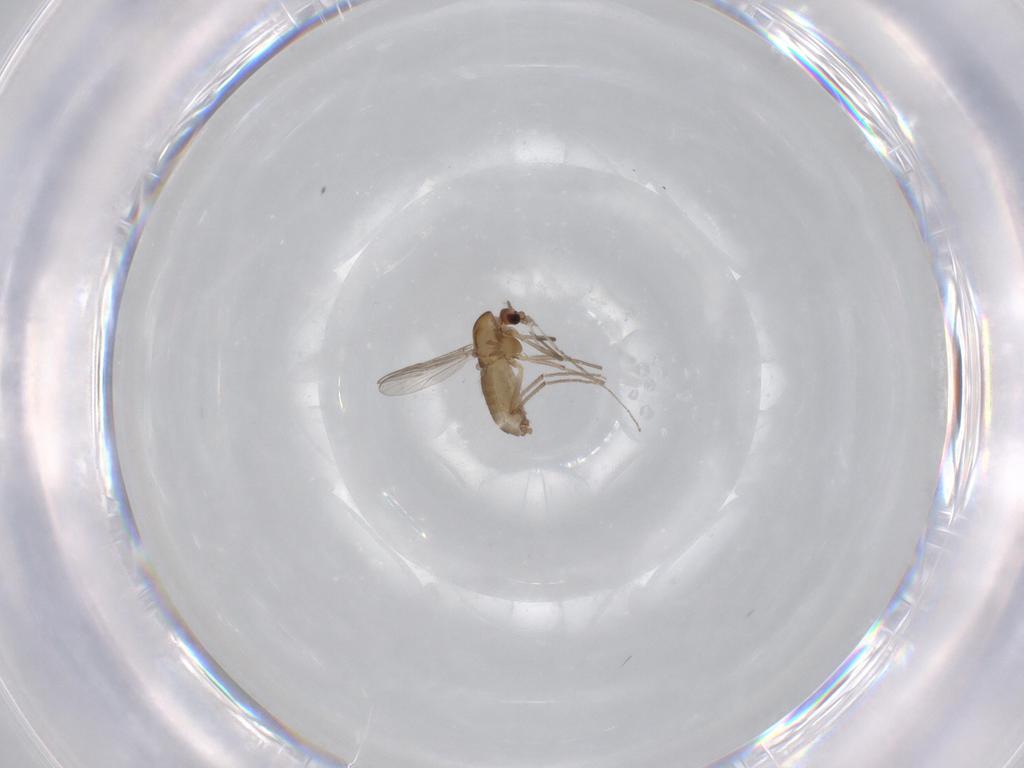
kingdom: Animalia
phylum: Arthropoda
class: Insecta
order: Diptera
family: Chironomidae
